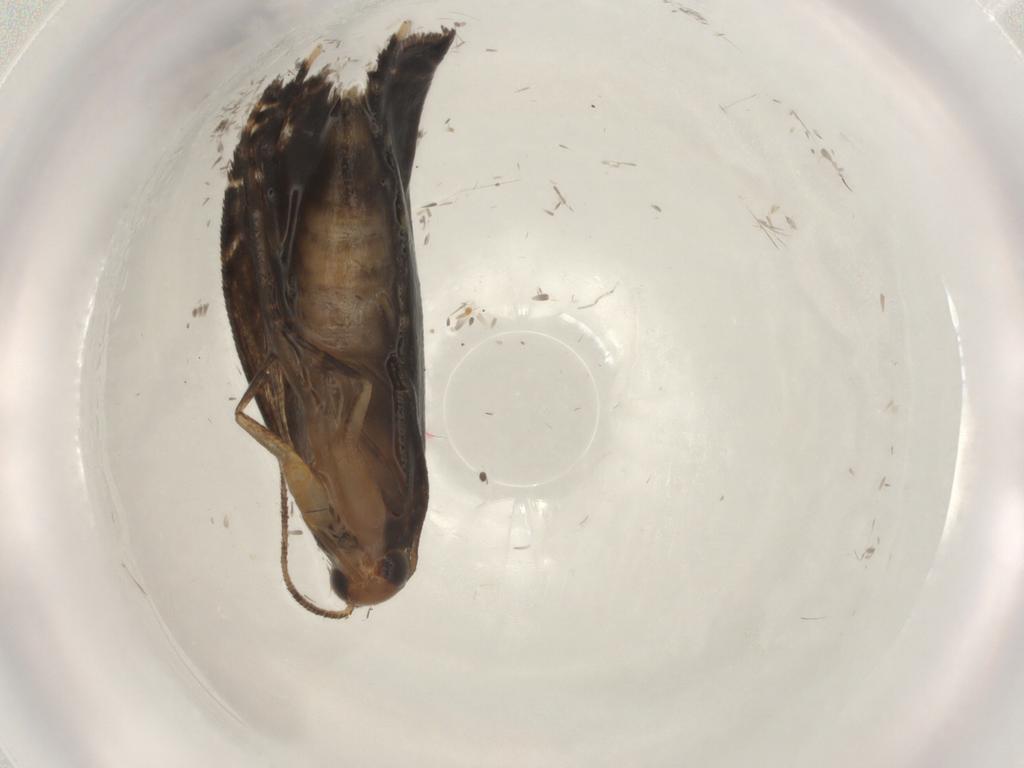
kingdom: Animalia
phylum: Arthropoda
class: Insecta
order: Lepidoptera
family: Glyphipterigidae
